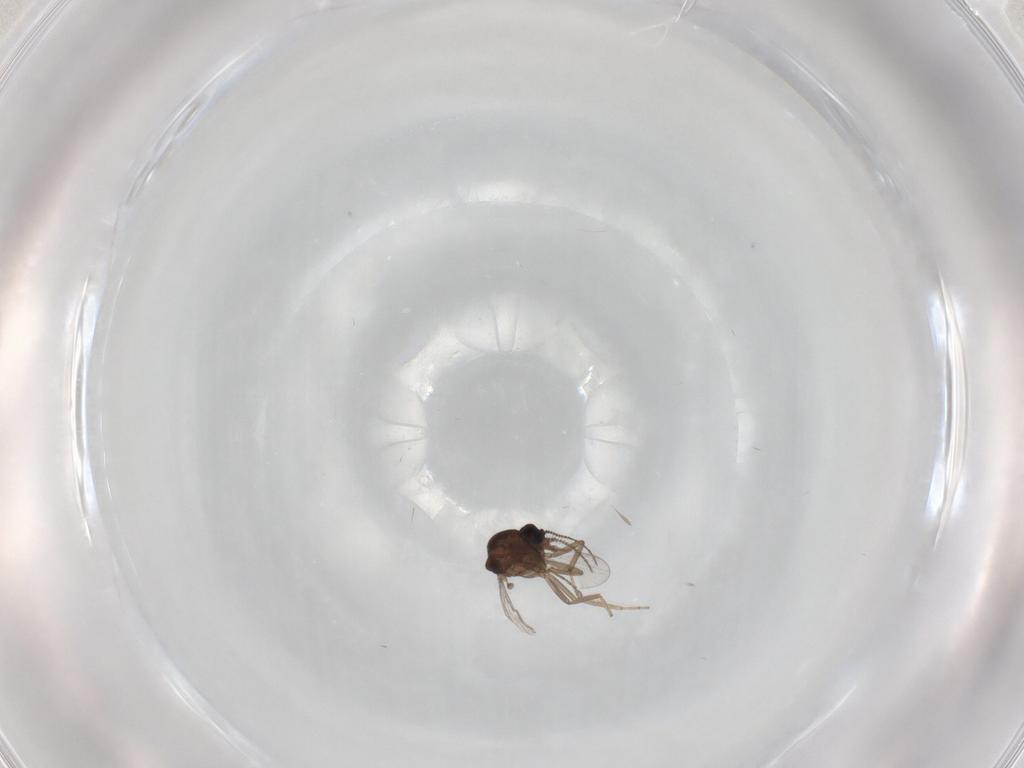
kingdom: Animalia
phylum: Arthropoda
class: Insecta
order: Diptera
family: Ceratopogonidae
